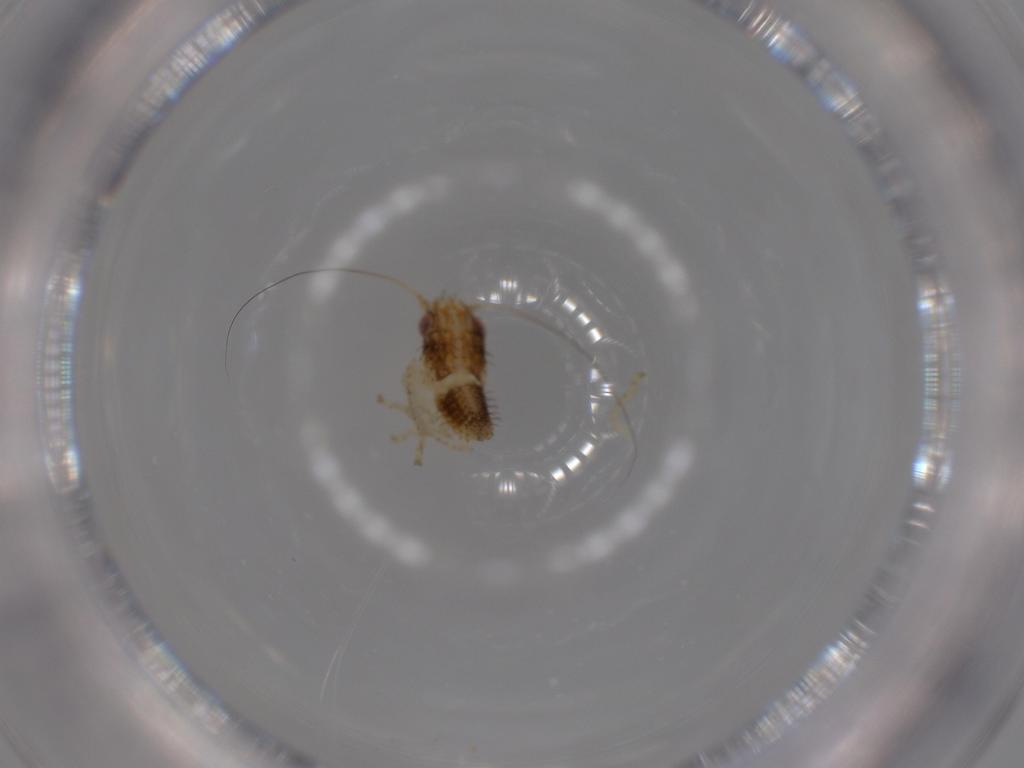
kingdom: Animalia
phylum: Arthropoda
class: Insecta
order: Hemiptera
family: Cicadellidae
